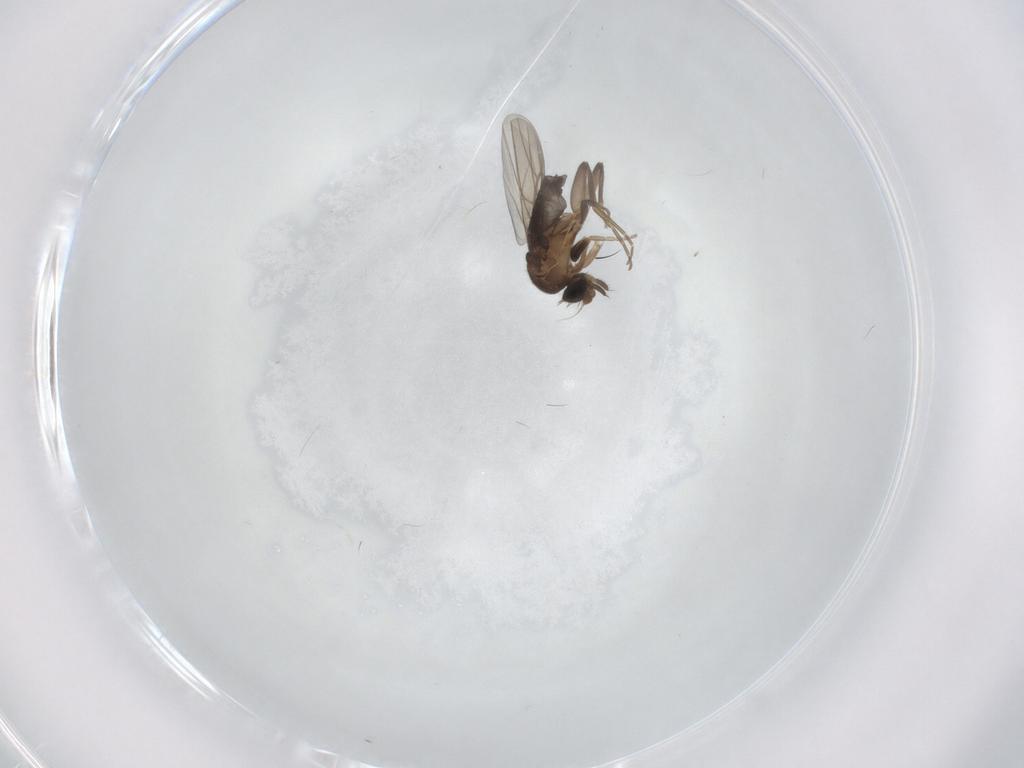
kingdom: Animalia
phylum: Arthropoda
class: Insecta
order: Diptera
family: Phoridae
